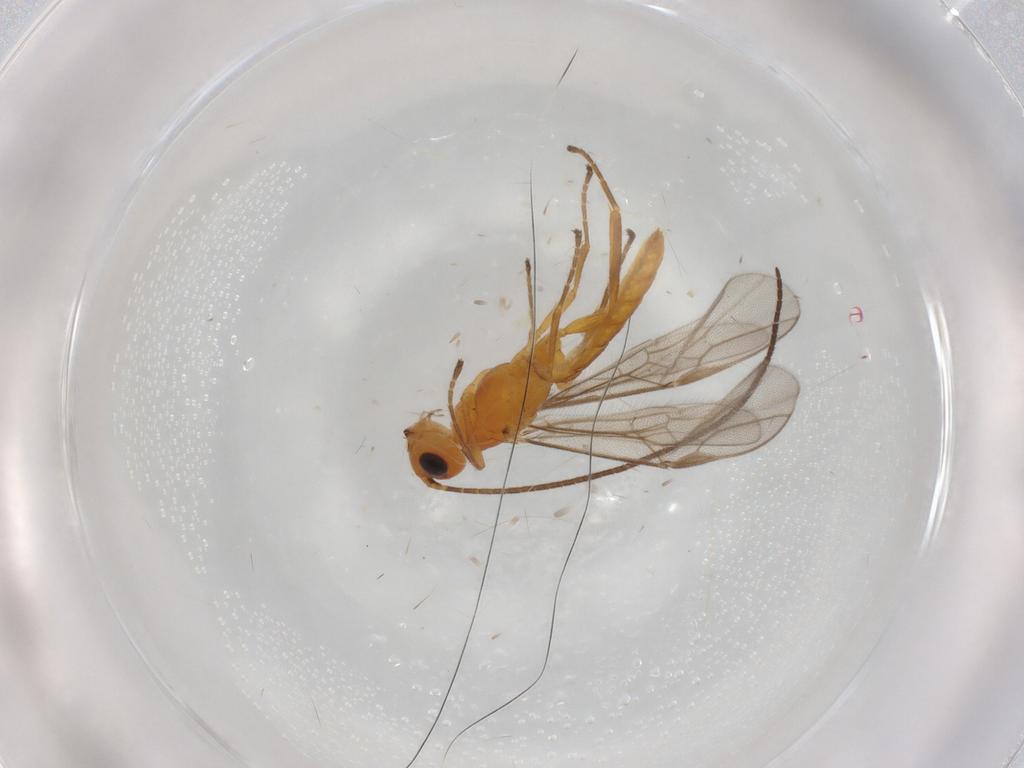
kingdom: Animalia
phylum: Arthropoda
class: Insecta
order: Hymenoptera
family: Braconidae
